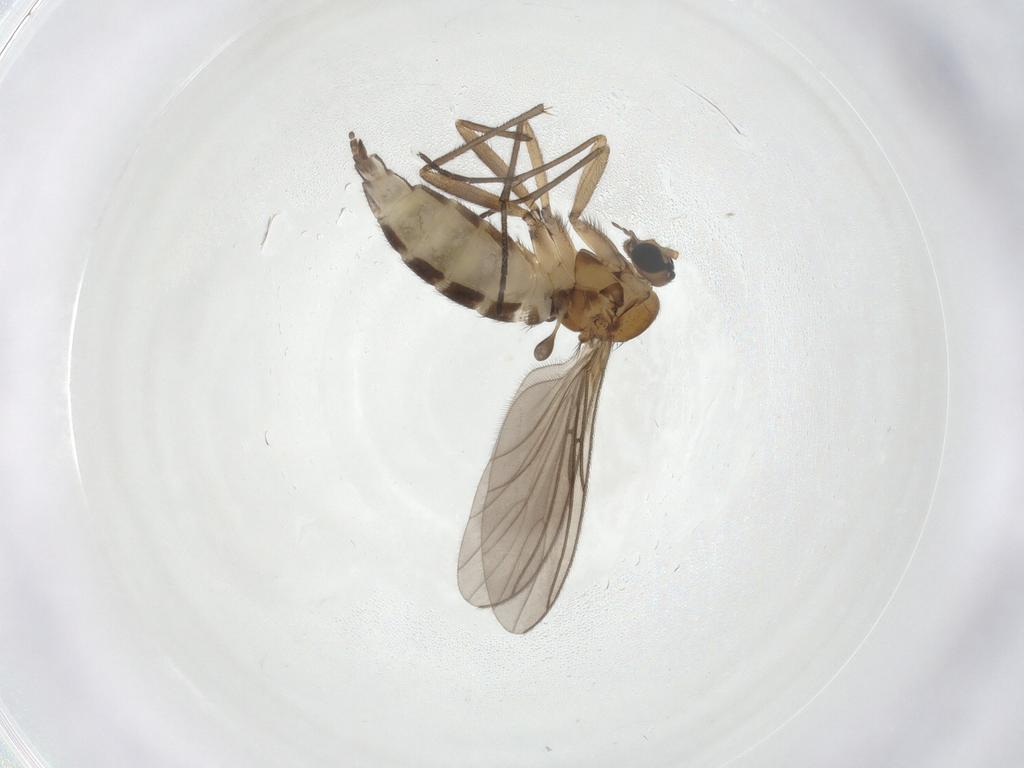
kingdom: Animalia
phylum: Arthropoda
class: Insecta
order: Diptera
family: Sciaridae
